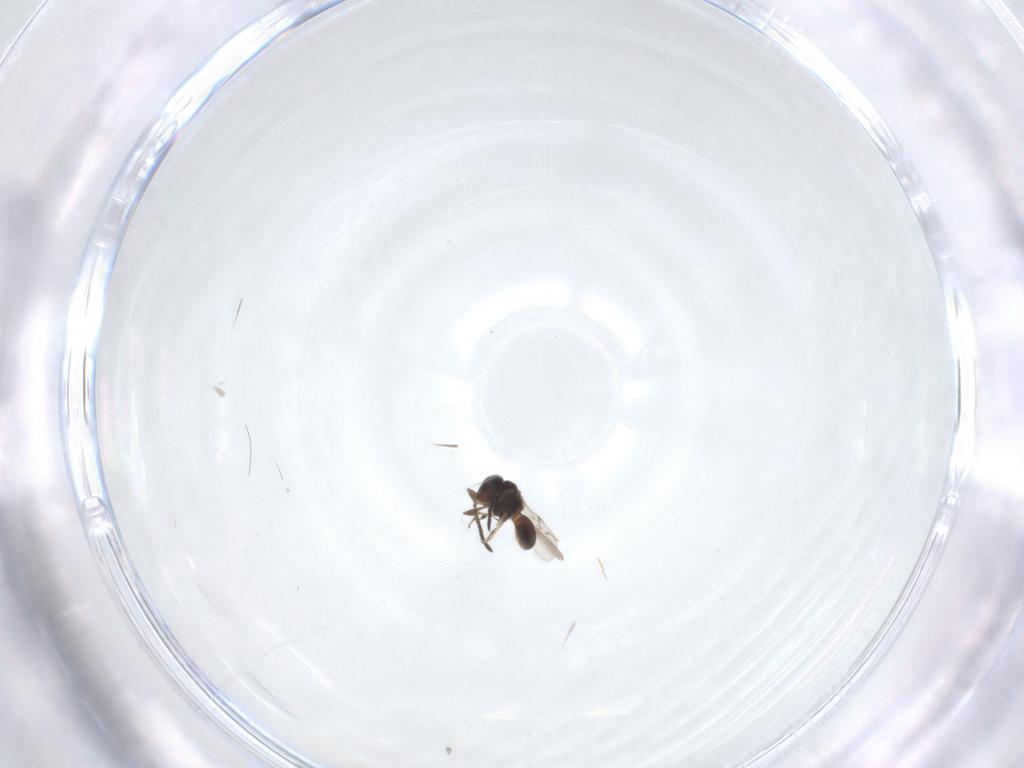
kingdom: Animalia
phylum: Arthropoda
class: Insecta
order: Hymenoptera
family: Scelionidae
